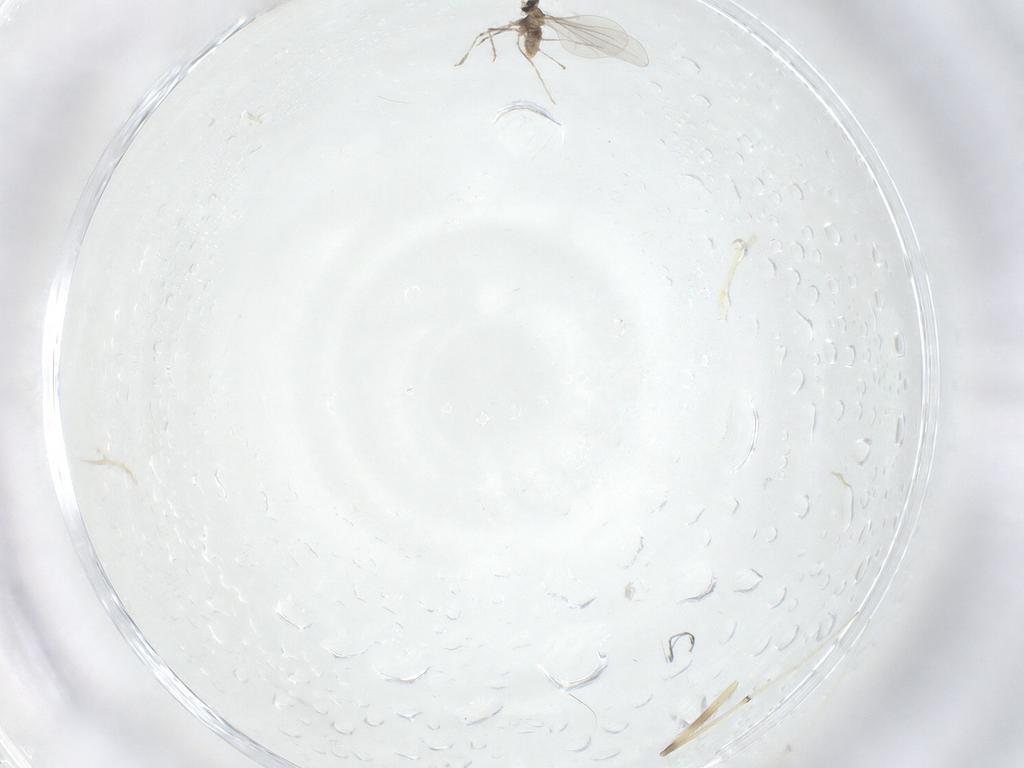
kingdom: Animalia
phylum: Arthropoda
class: Insecta
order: Diptera
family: Cecidomyiidae
